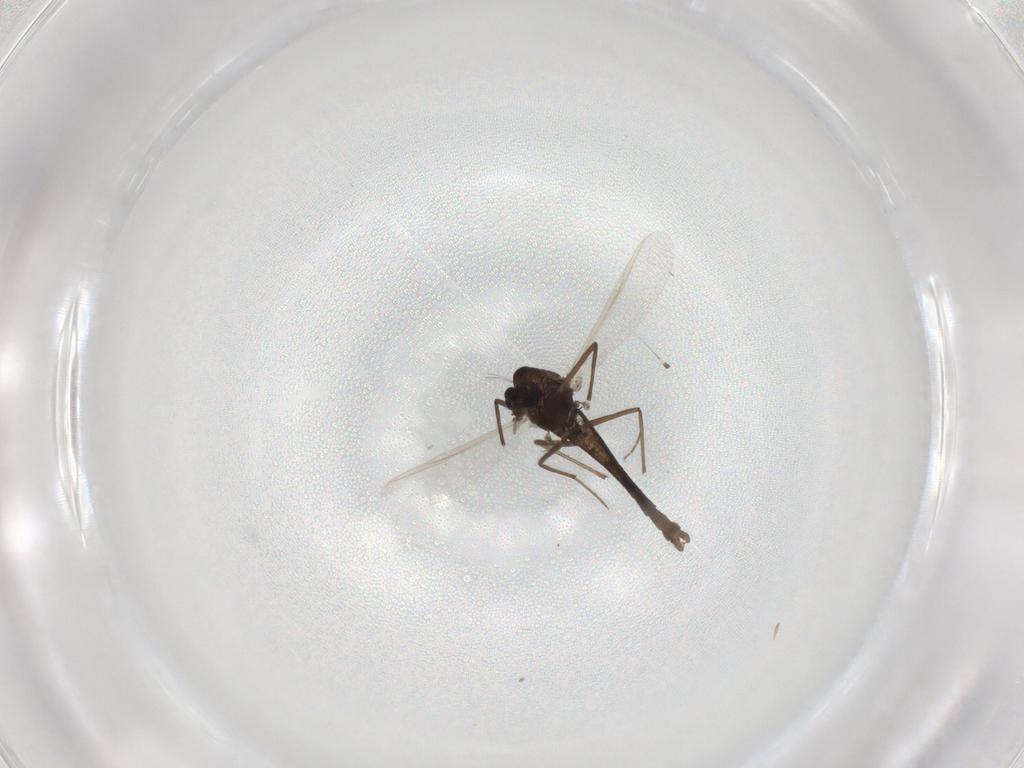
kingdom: Animalia
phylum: Arthropoda
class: Insecta
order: Diptera
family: Chironomidae
